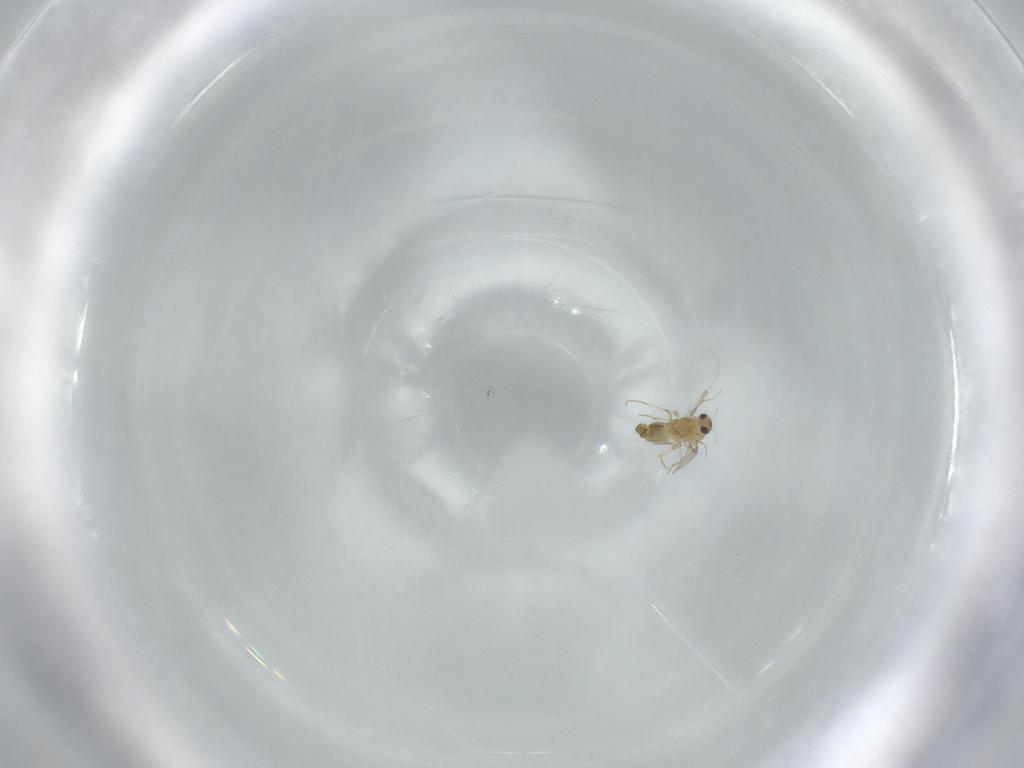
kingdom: Animalia
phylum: Arthropoda
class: Insecta
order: Diptera
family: Chironomidae
